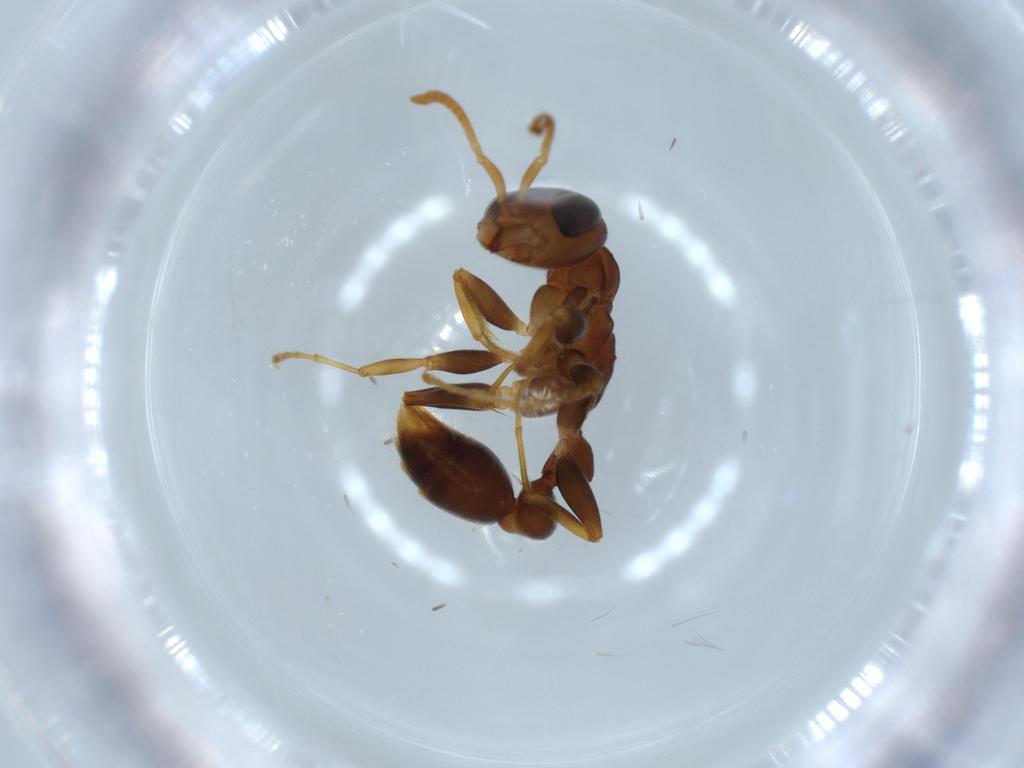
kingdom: Animalia
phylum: Arthropoda
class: Insecta
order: Hymenoptera
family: Formicidae
